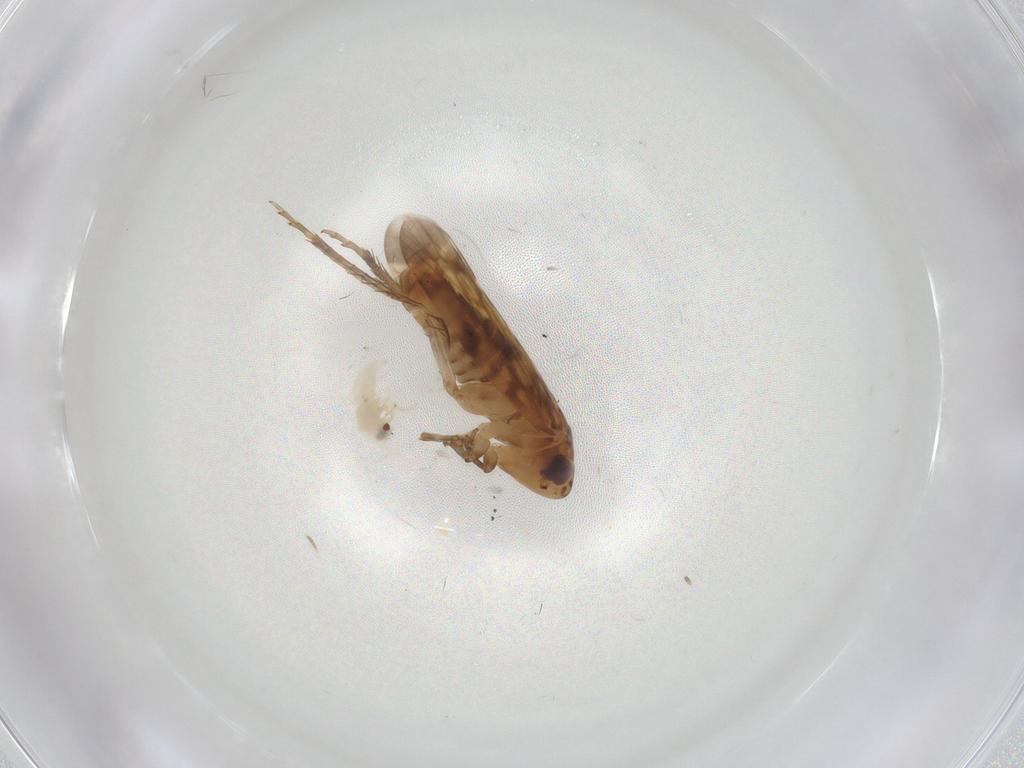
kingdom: Animalia
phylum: Arthropoda
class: Insecta
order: Hemiptera
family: Cicadellidae
